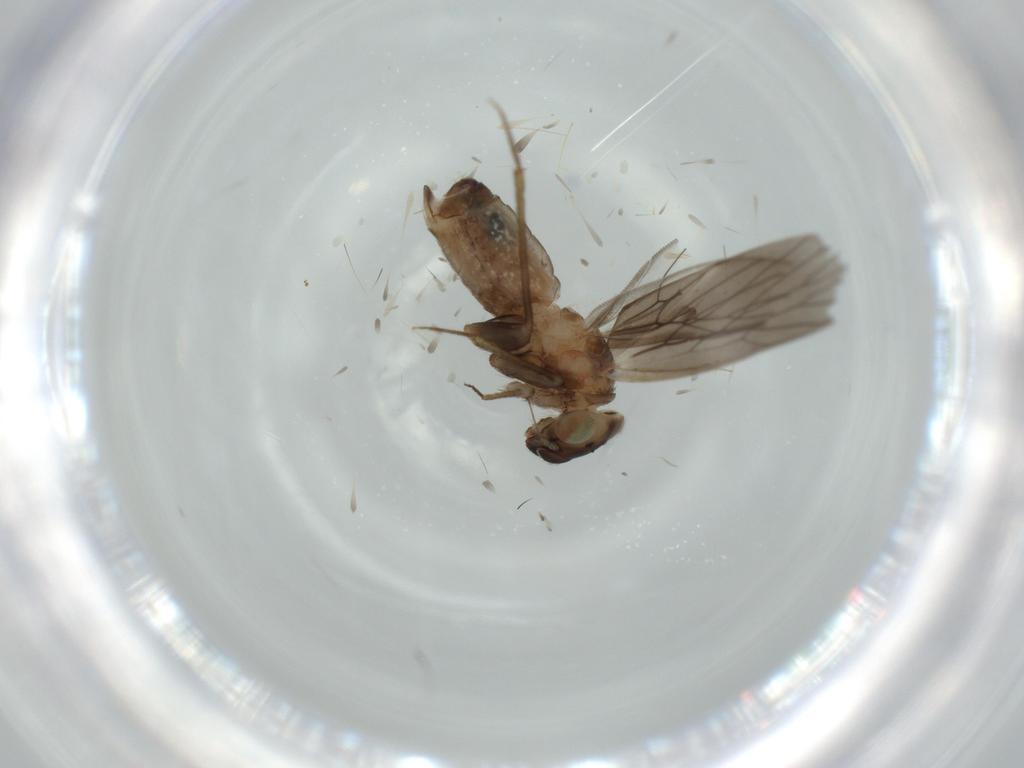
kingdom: Animalia
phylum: Arthropoda
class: Insecta
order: Psocodea
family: Lepidopsocidae
